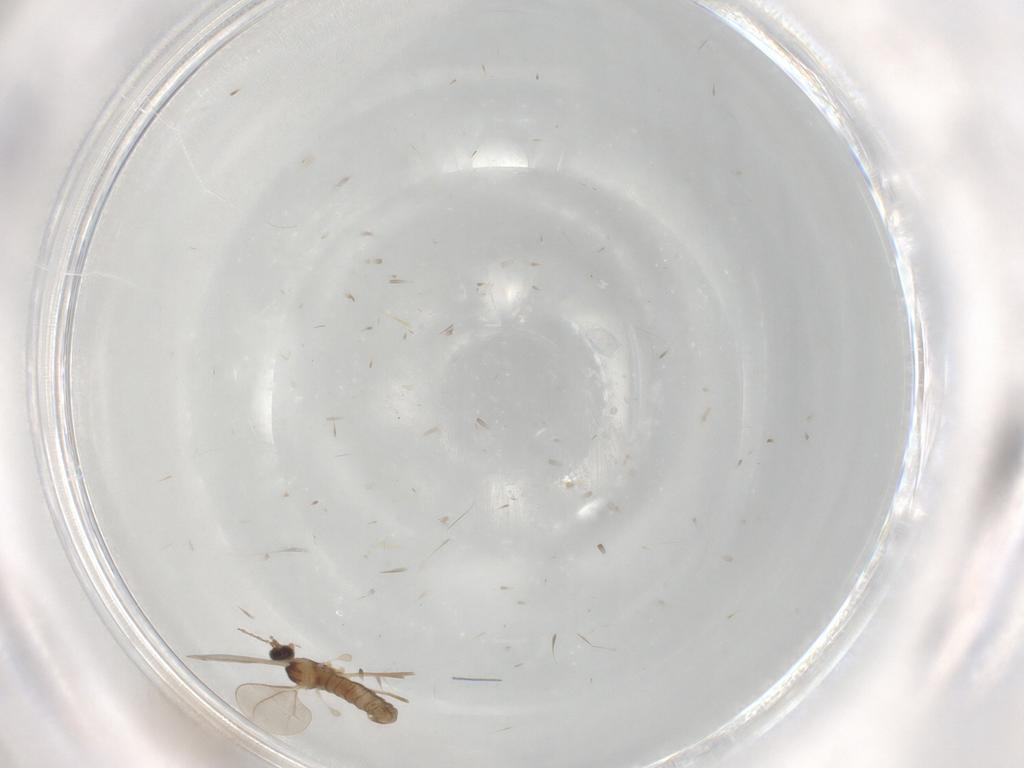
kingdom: Animalia
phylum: Arthropoda
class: Insecta
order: Diptera
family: Cecidomyiidae
